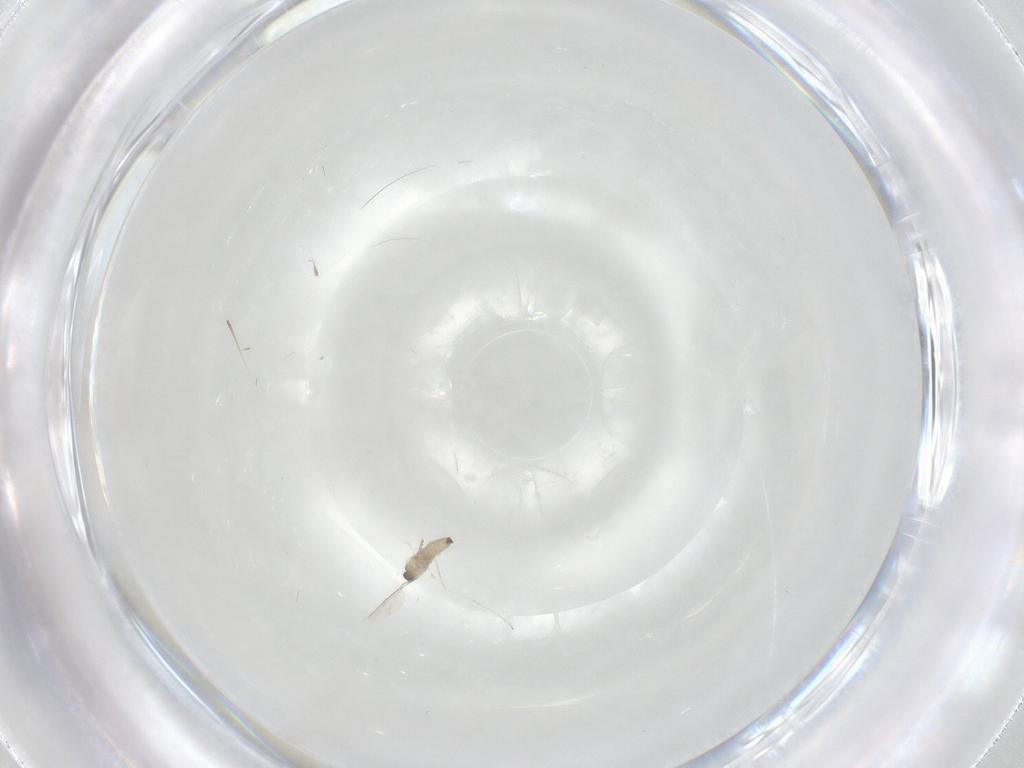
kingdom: Animalia
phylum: Arthropoda
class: Insecta
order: Diptera
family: Cecidomyiidae
